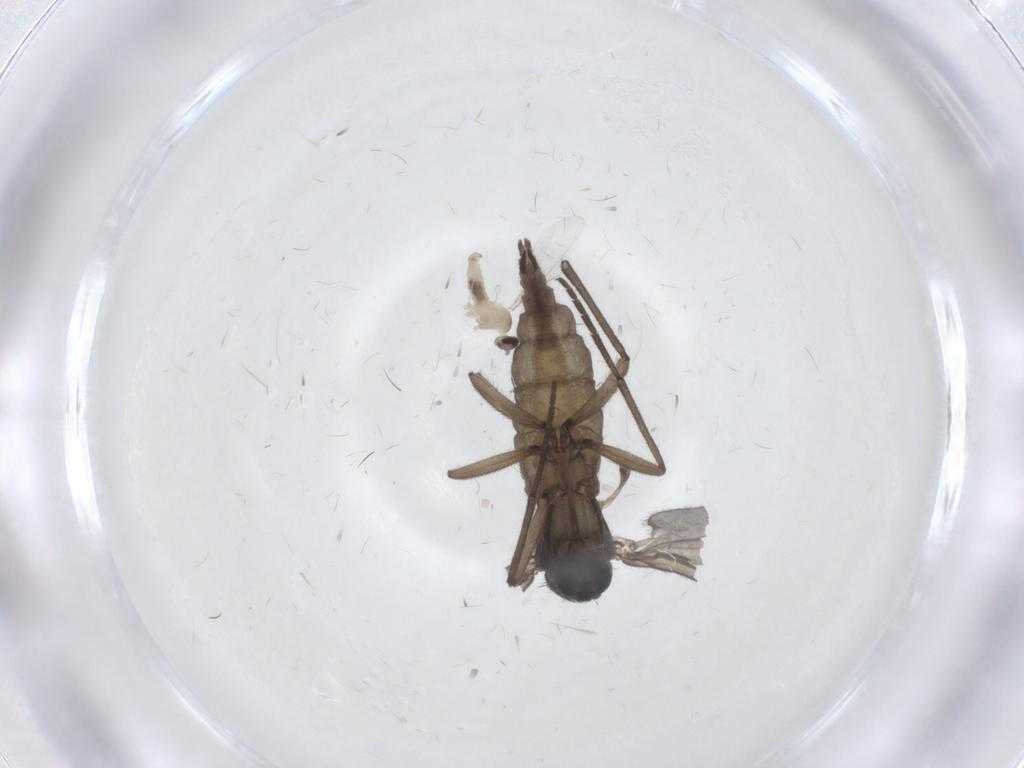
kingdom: Animalia
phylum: Arthropoda
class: Insecta
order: Diptera
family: Sciaridae
